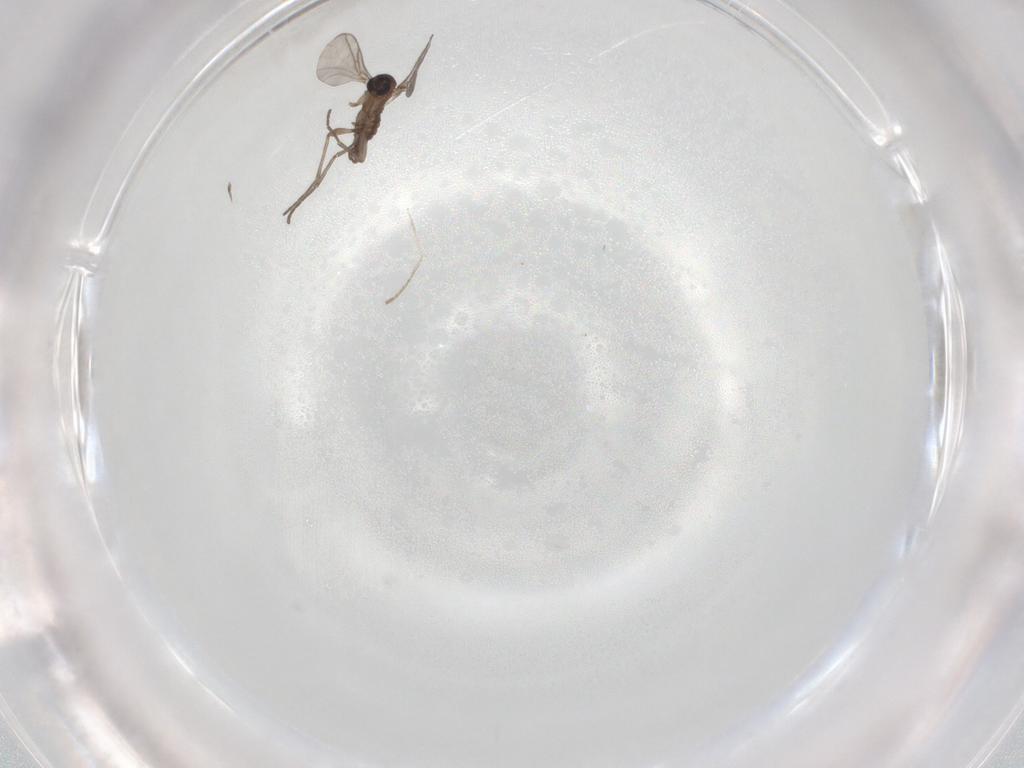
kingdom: Animalia
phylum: Arthropoda
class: Insecta
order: Diptera
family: Sciaridae
